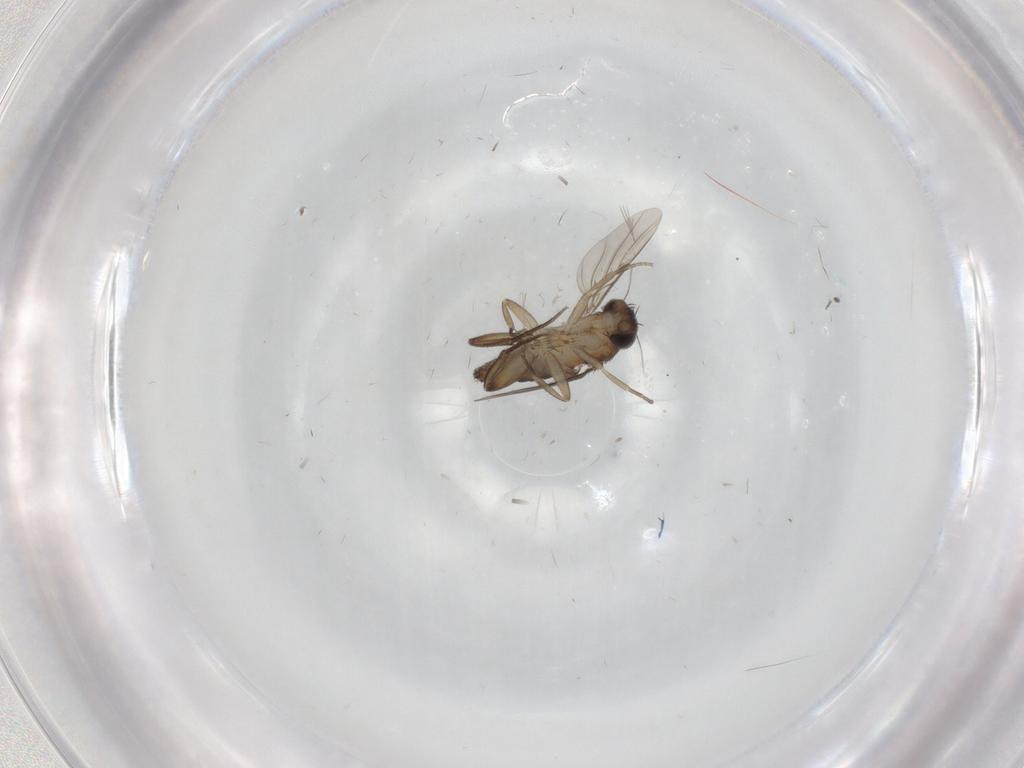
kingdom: Animalia
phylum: Arthropoda
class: Insecta
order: Diptera
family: Phoridae
